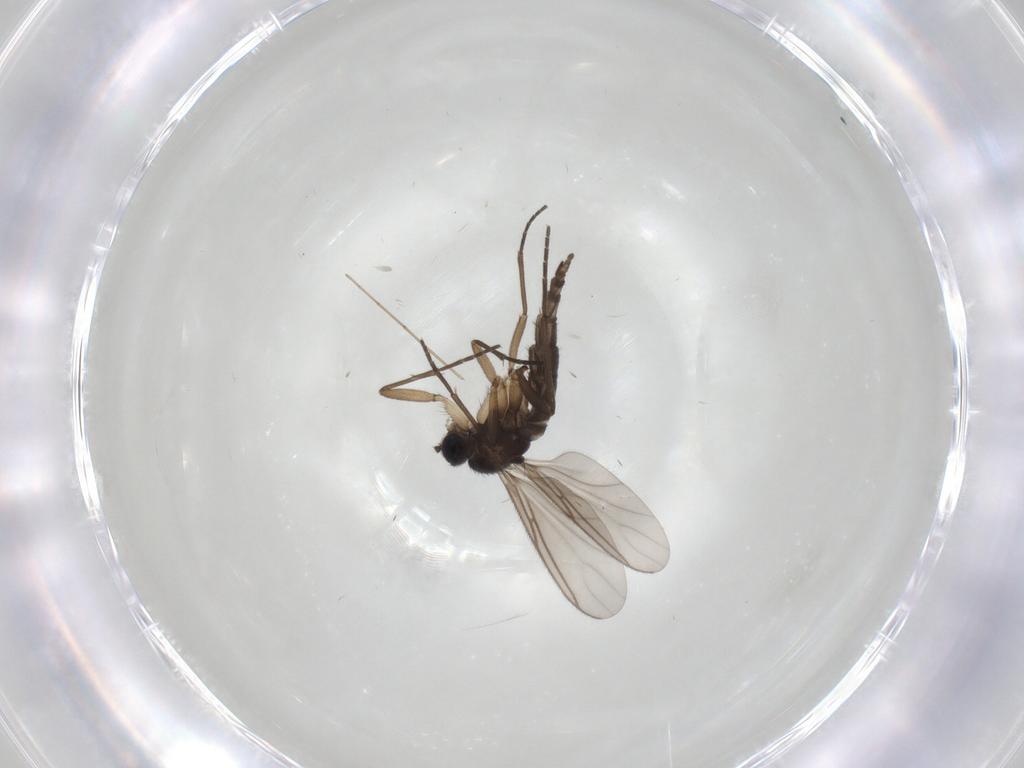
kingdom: Animalia
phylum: Arthropoda
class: Insecta
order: Diptera
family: Sciaridae
